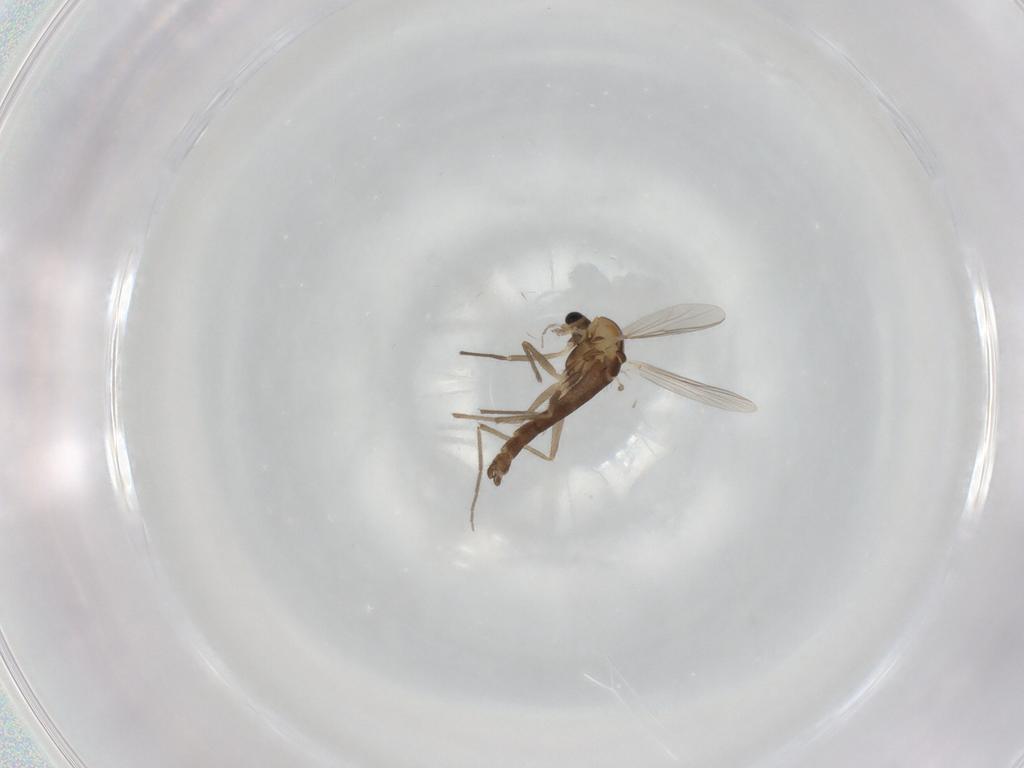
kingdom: Animalia
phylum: Arthropoda
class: Insecta
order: Diptera
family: Chironomidae
